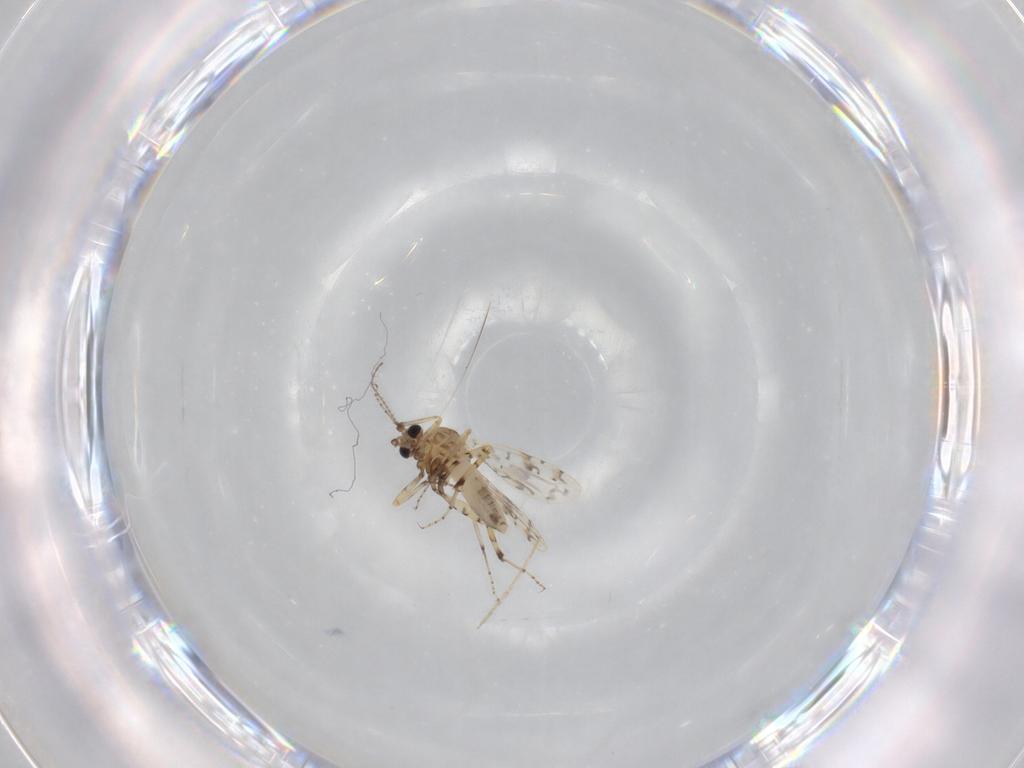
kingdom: Animalia
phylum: Arthropoda
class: Insecta
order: Diptera
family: Ceratopogonidae
